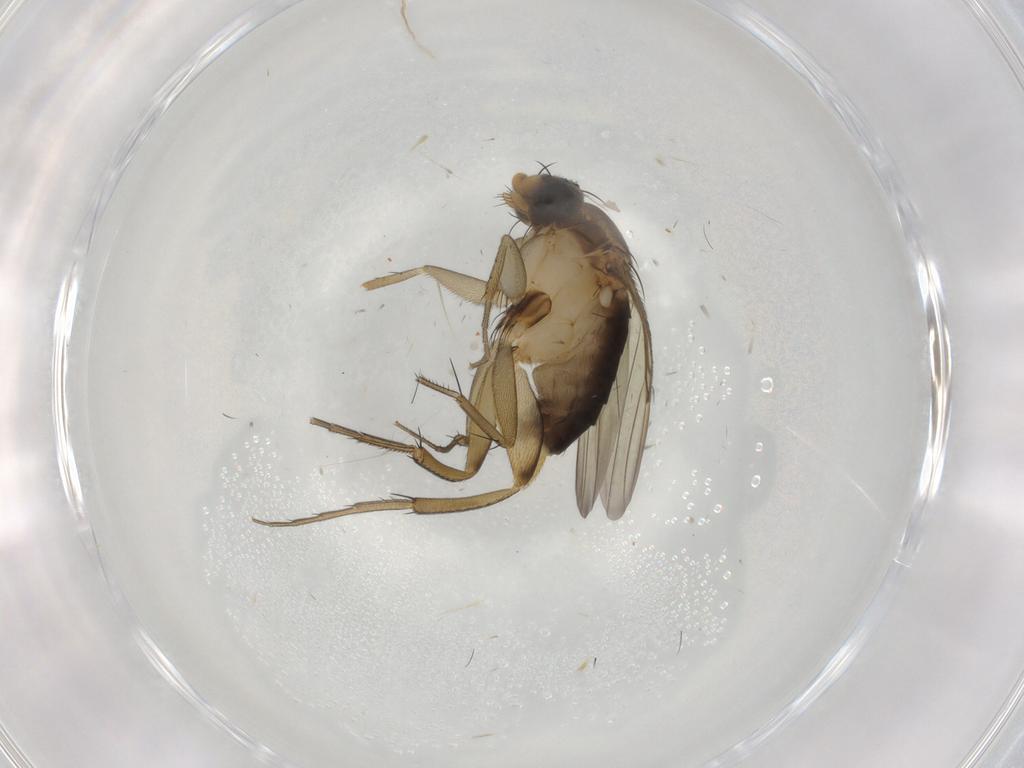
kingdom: Animalia
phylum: Arthropoda
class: Insecta
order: Diptera
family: Phoridae
